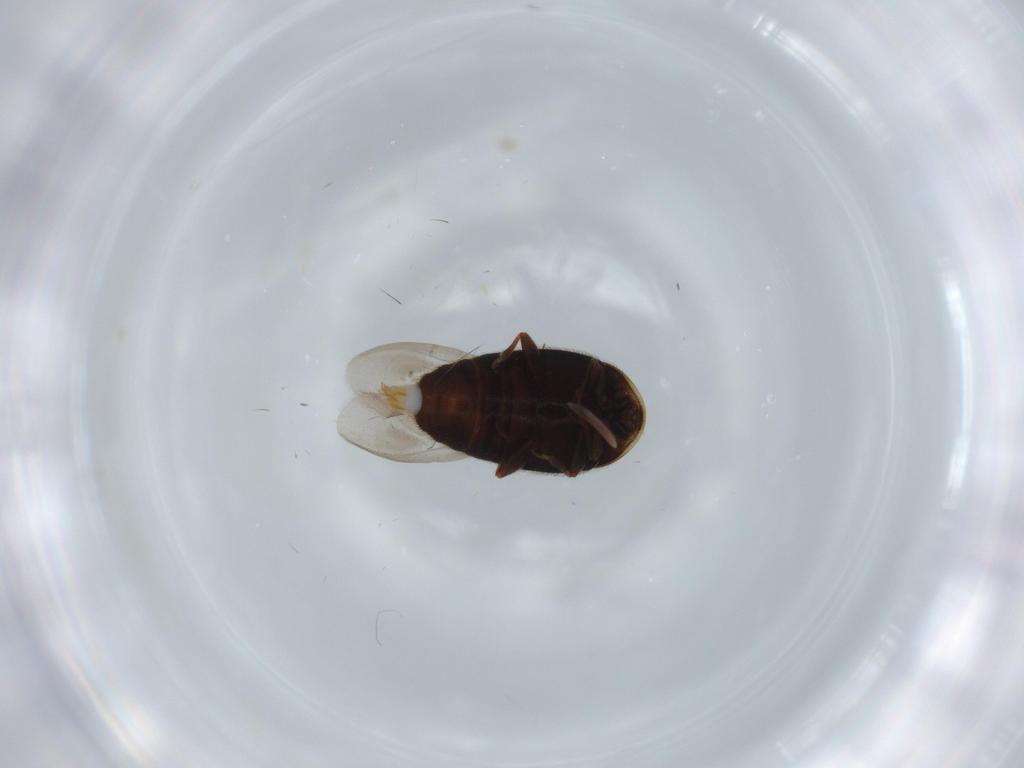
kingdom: Animalia
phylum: Arthropoda
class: Insecta
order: Coleoptera
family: Corylophidae
